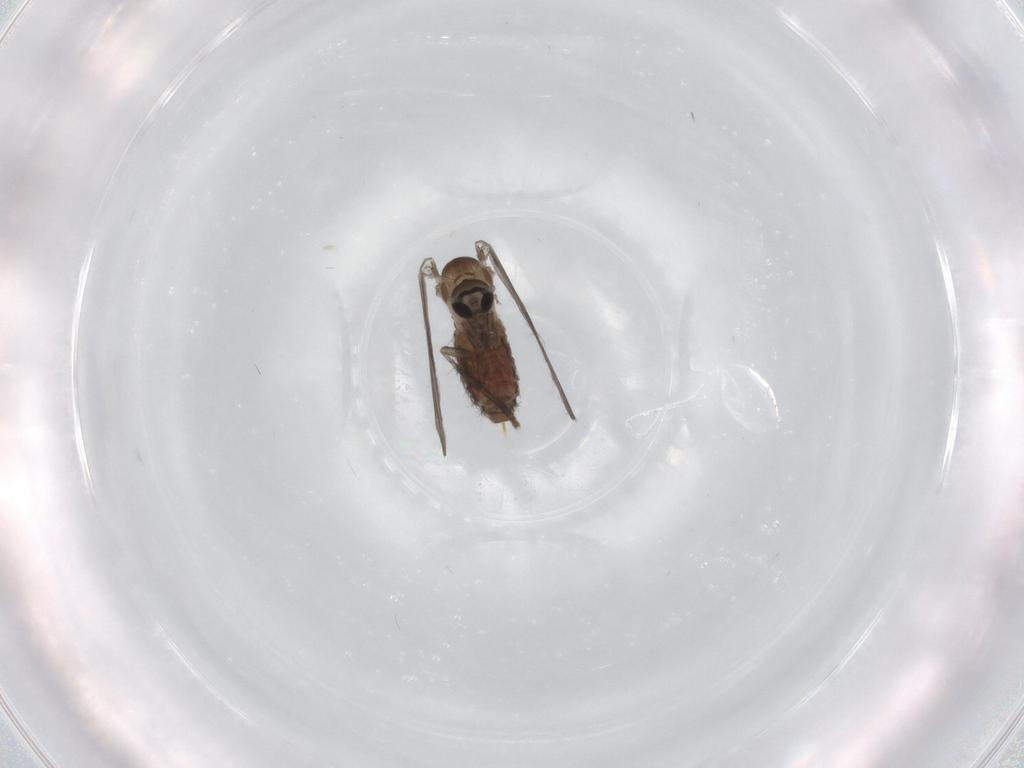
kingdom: Animalia
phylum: Arthropoda
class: Insecta
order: Diptera
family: Psychodidae
